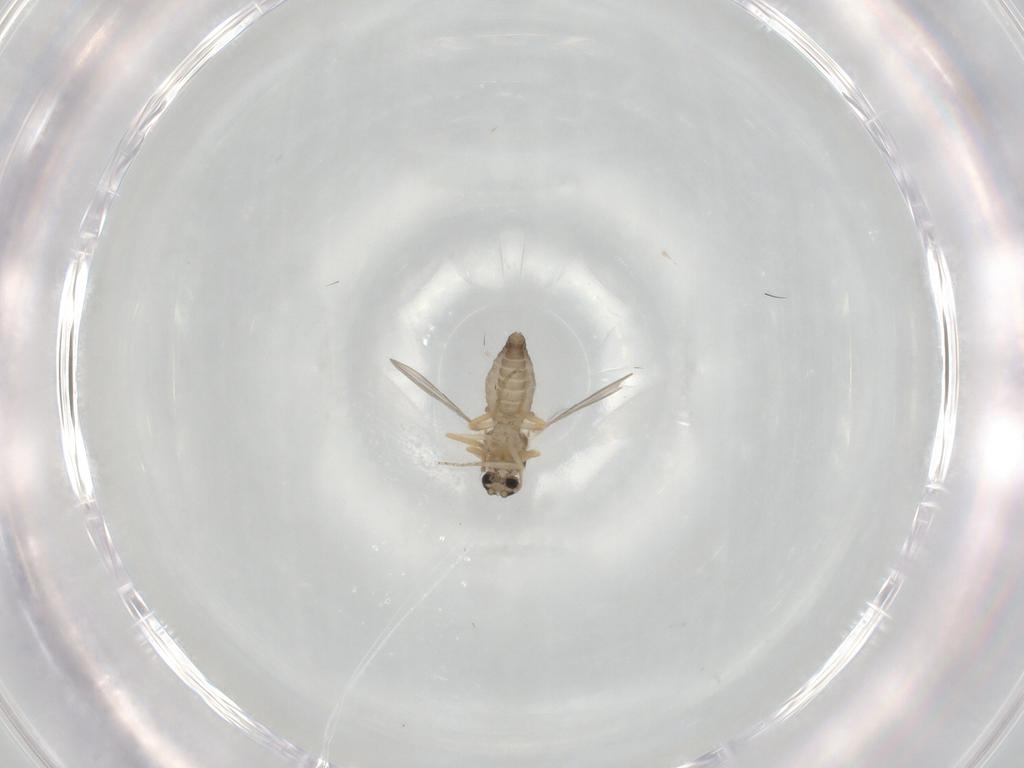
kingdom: Animalia
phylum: Arthropoda
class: Insecta
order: Diptera
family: Ceratopogonidae
